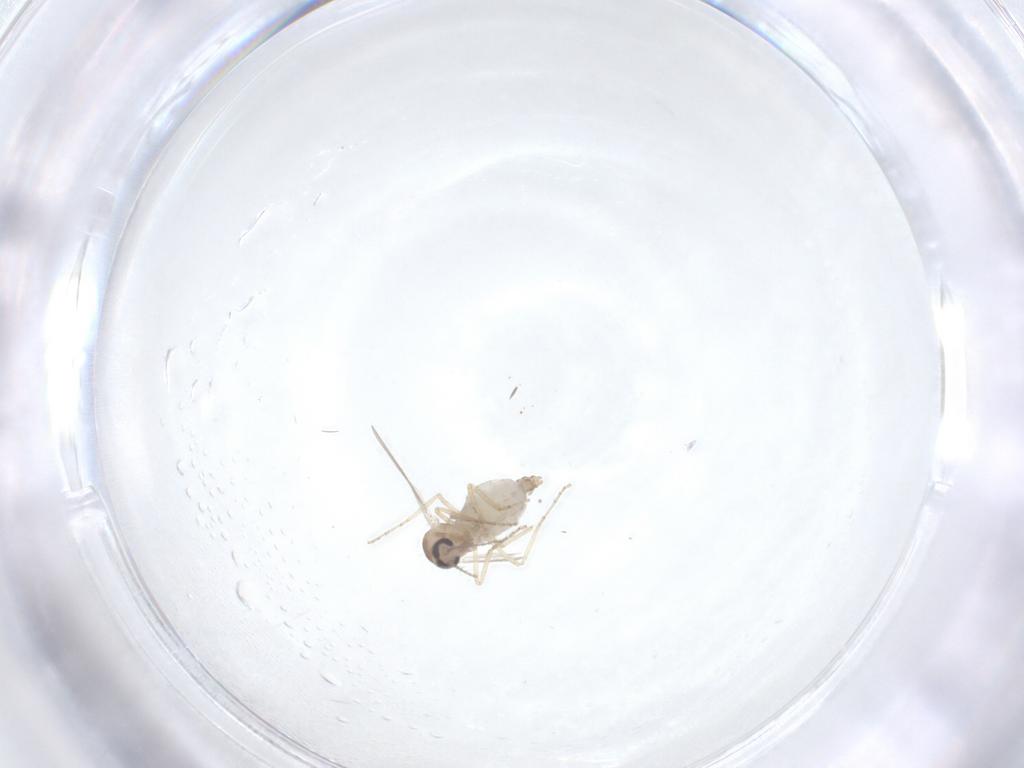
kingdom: Animalia
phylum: Arthropoda
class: Insecta
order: Diptera
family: Ceratopogonidae
